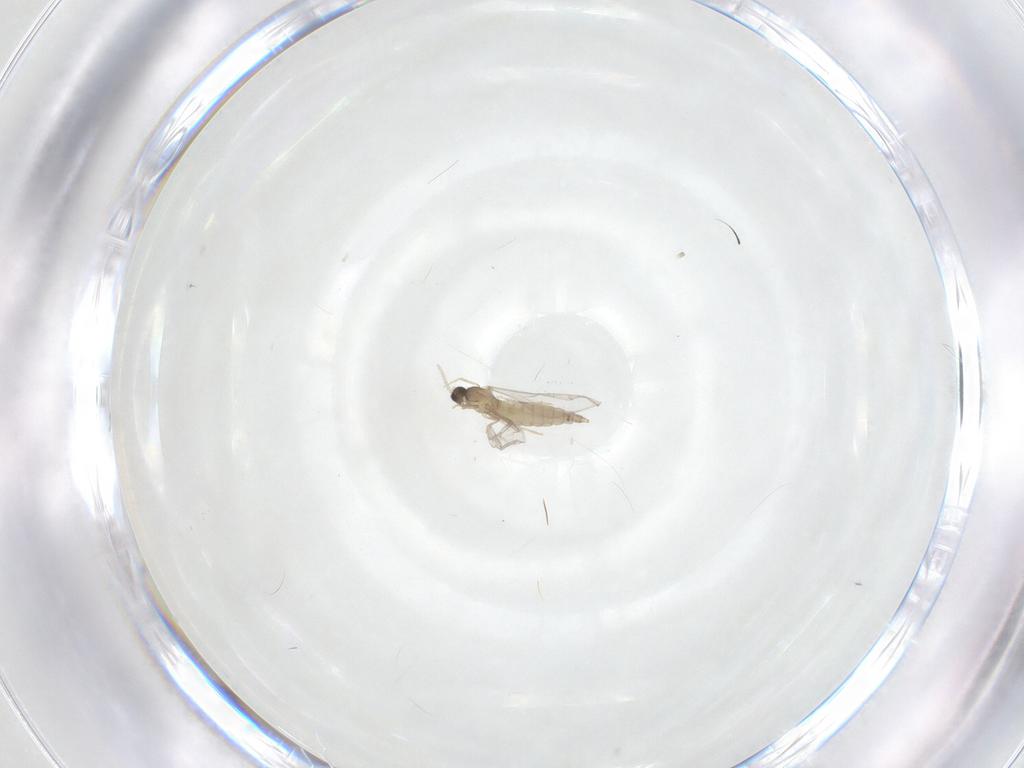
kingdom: Animalia
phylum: Arthropoda
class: Insecta
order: Diptera
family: Cecidomyiidae
